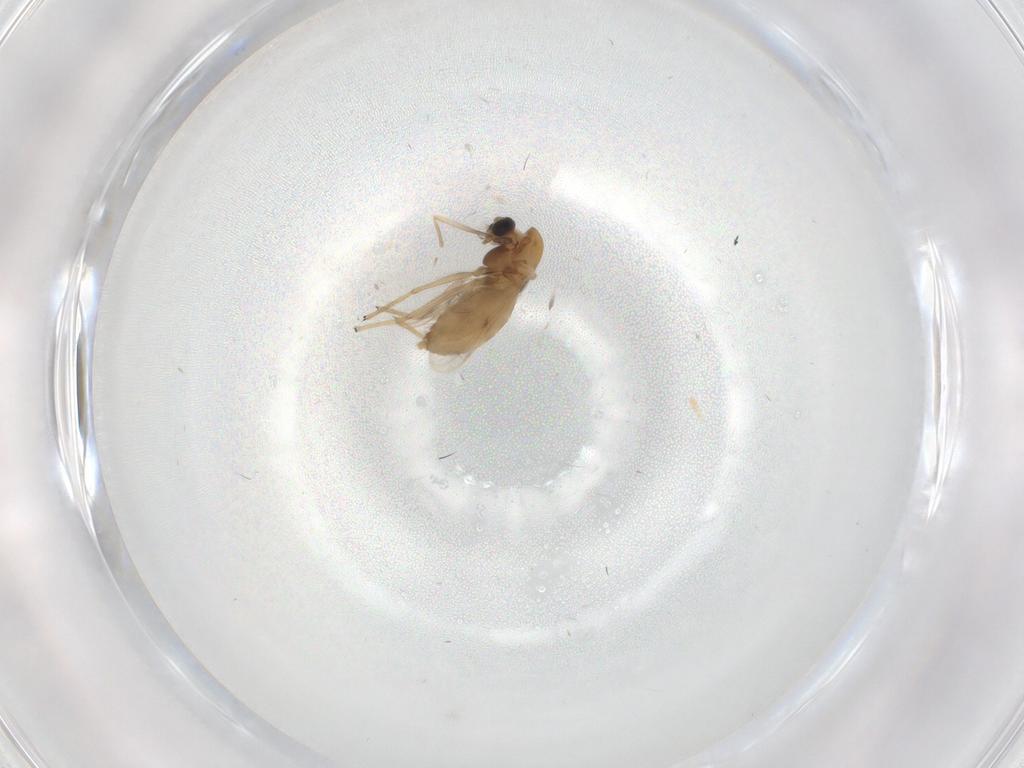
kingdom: Animalia
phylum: Arthropoda
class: Insecta
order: Diptera
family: Chironomidae
